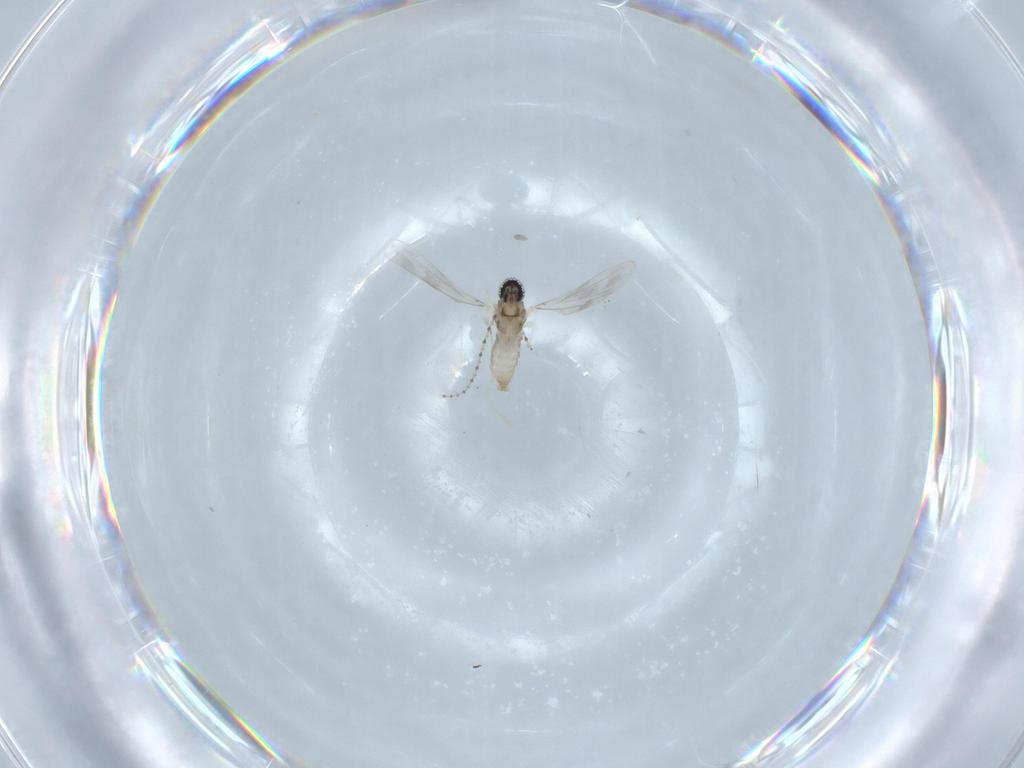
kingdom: Animalia
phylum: Arthropoda
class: Insecta
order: Diptera
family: Cecidomyiidae
